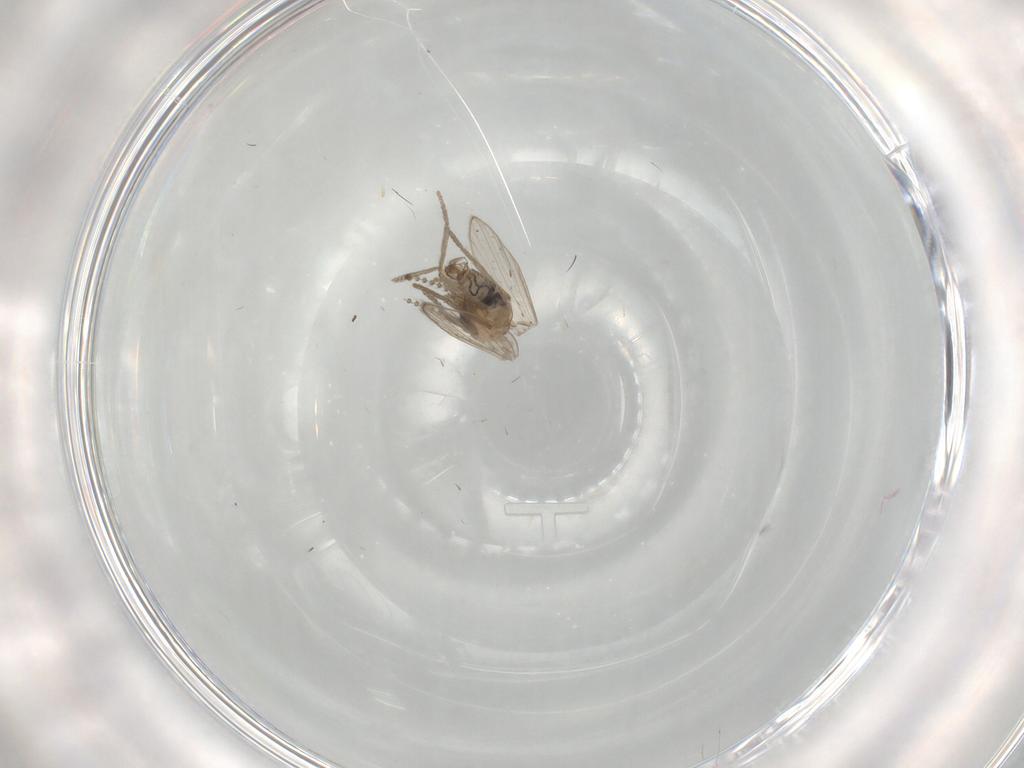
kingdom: Animalia
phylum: Arthropoda
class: Insecta
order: Diptera
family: Psychodidae
